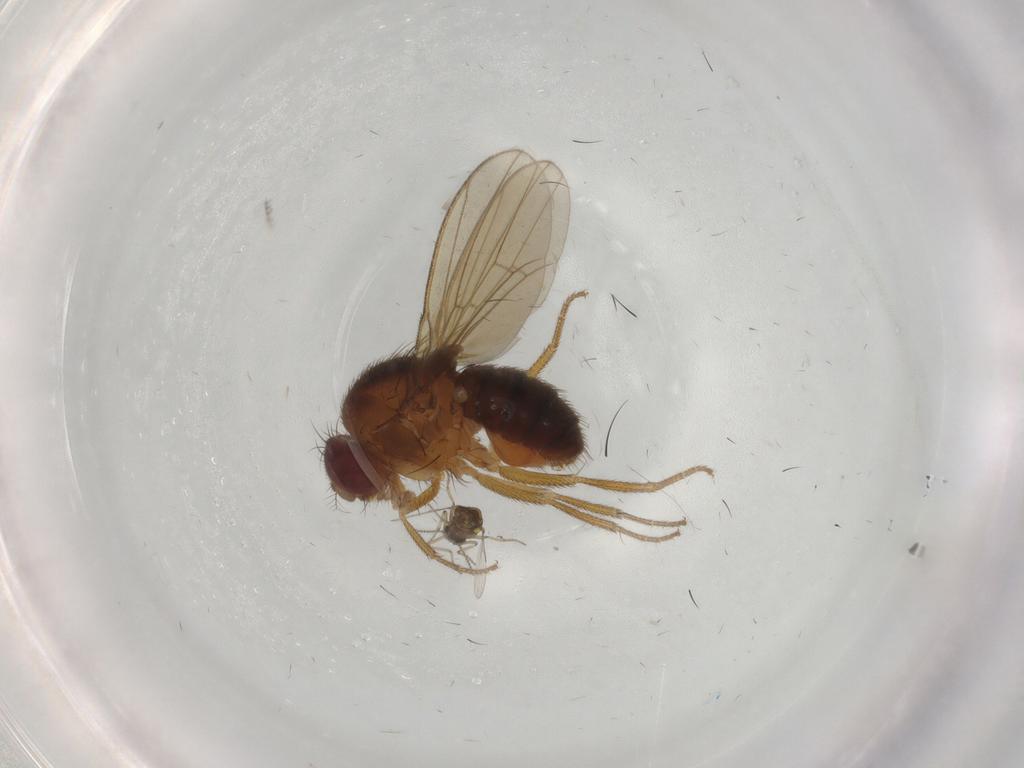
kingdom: Animalia
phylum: Arthropoda
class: Insecta
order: Diptera
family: Drosophilidae
